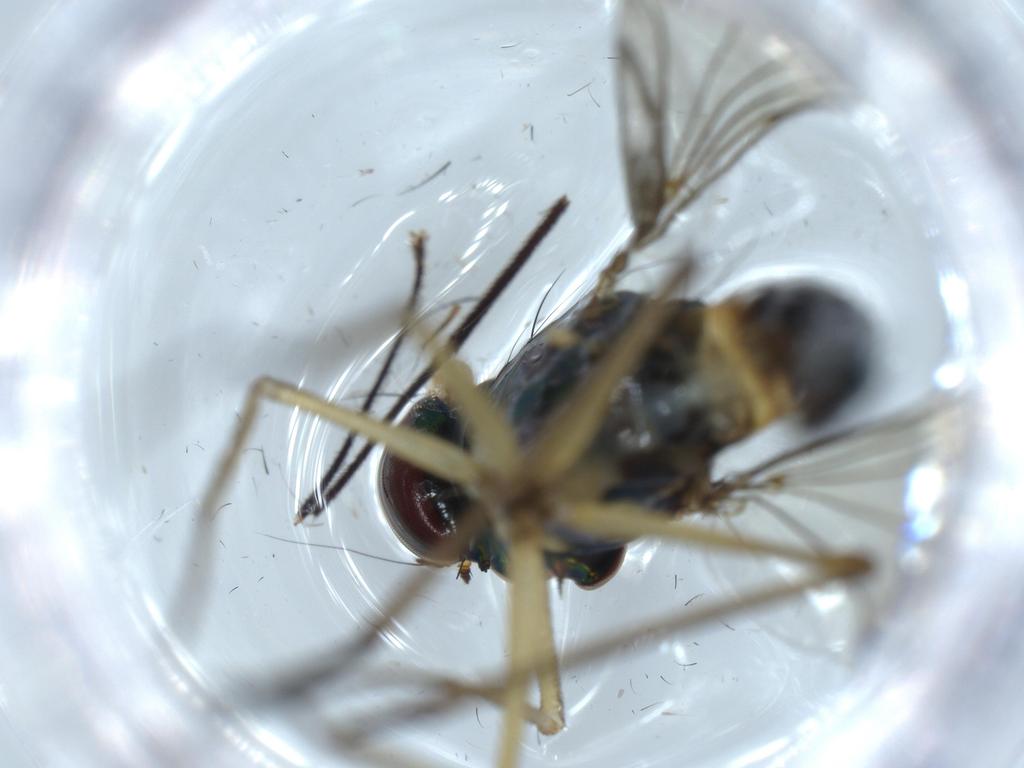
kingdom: Animalia
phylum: Arthropoda
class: Insecta
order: Diptera
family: Dolichopodidae
